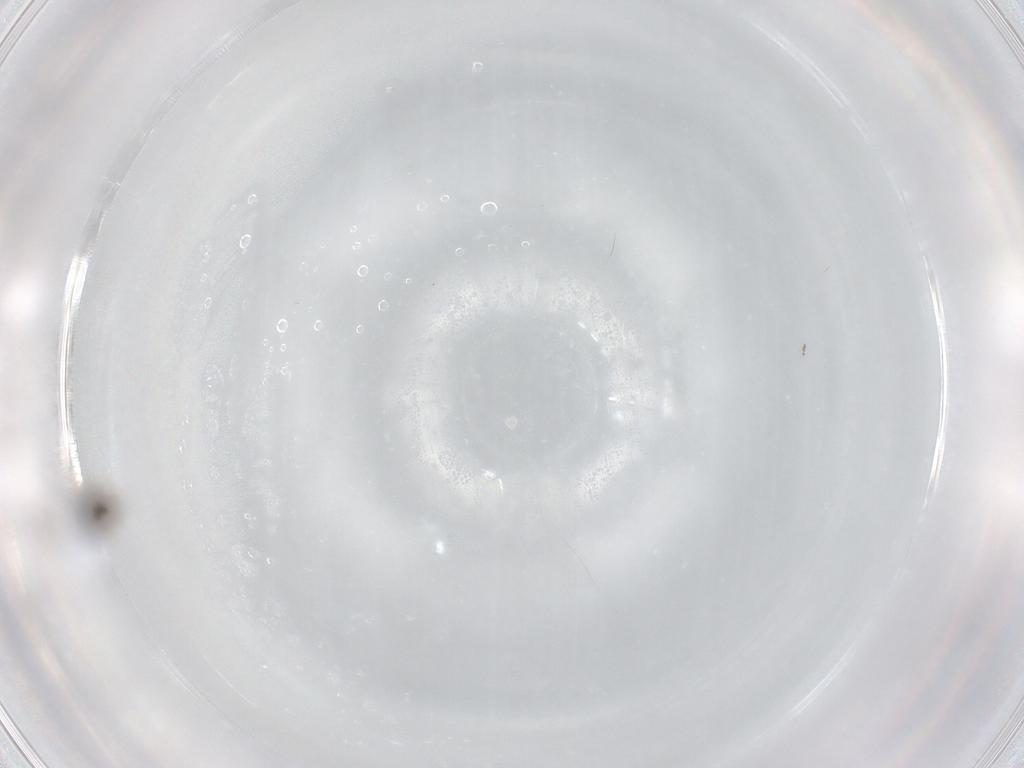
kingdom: Animalia
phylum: Arthropoda
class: Insecta
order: Hymenoptera
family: Diapriidae
